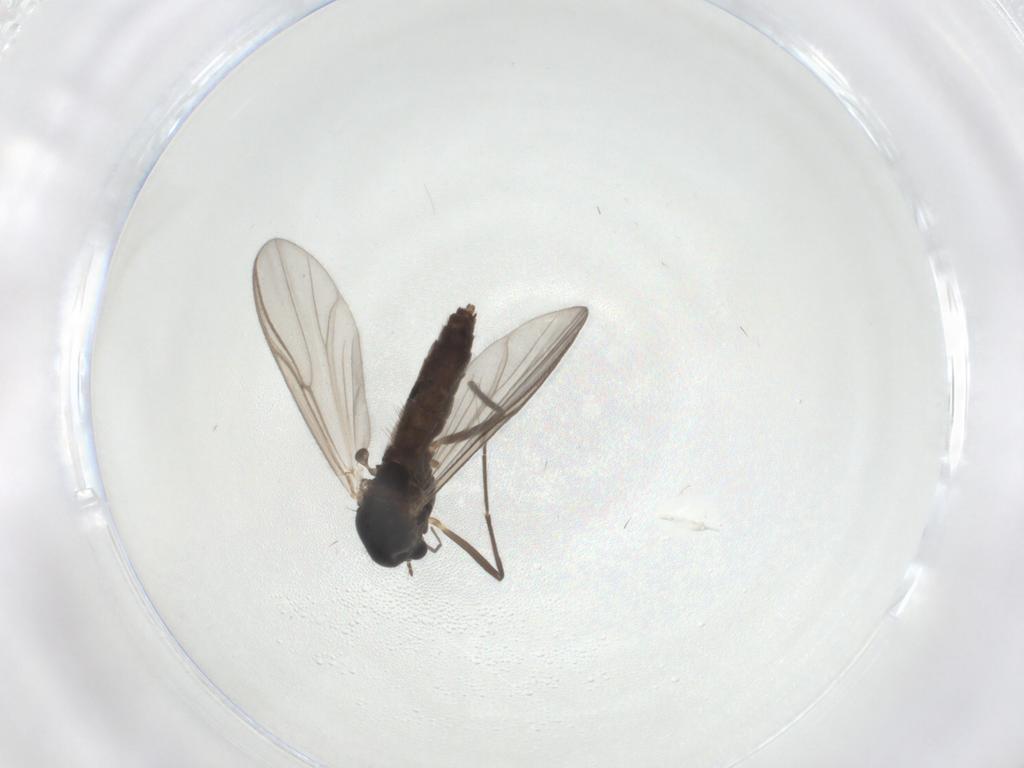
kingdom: Animalia
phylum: Arthropoda
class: Insecta
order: Diptera
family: Chironomidae
